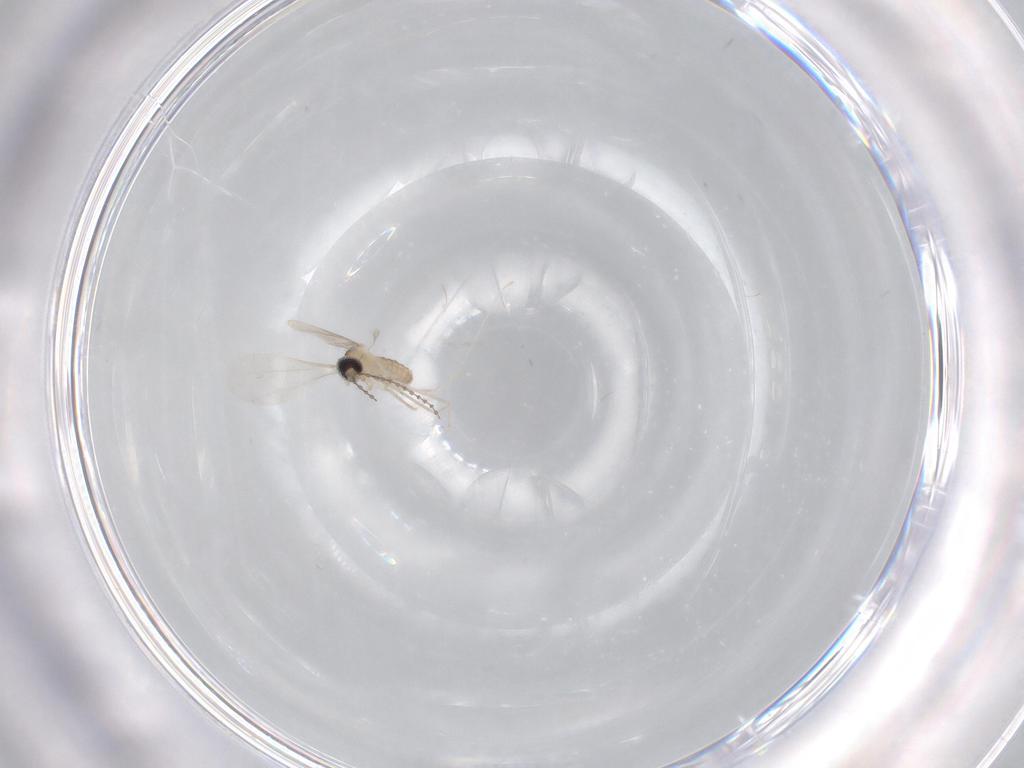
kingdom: Animalia
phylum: Arthropoda
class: Insecta
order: Diptera
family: Cecidomyiidae
